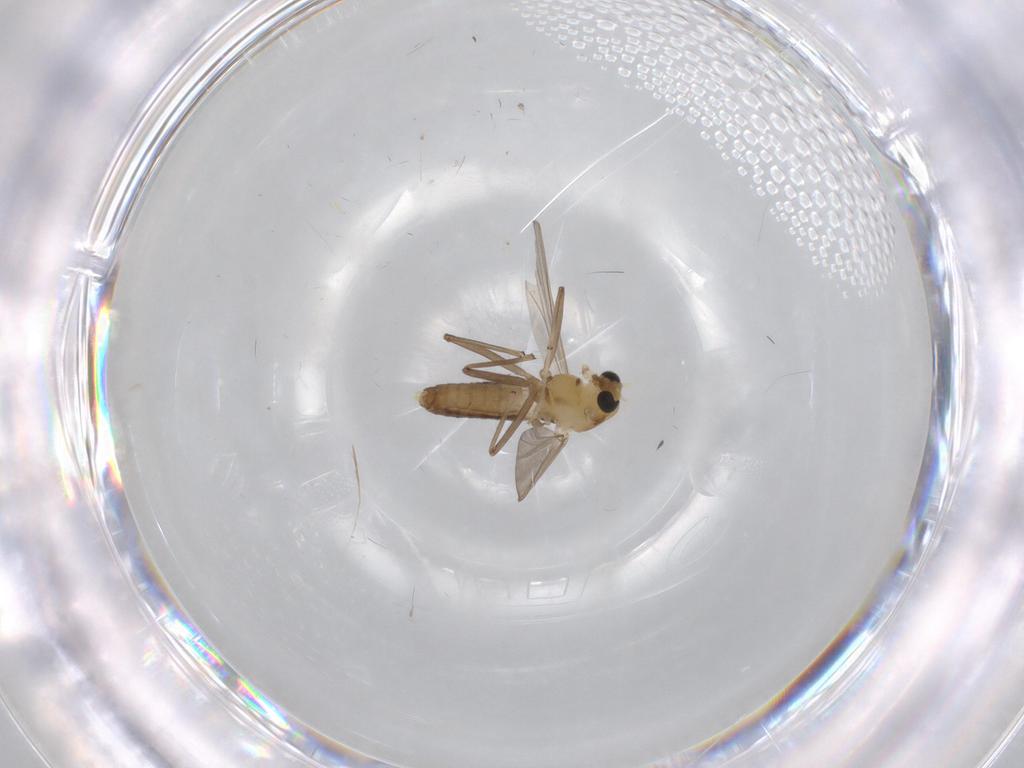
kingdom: Animalia
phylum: Arthropoda
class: Insecta
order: Diptera
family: Chironomidae
